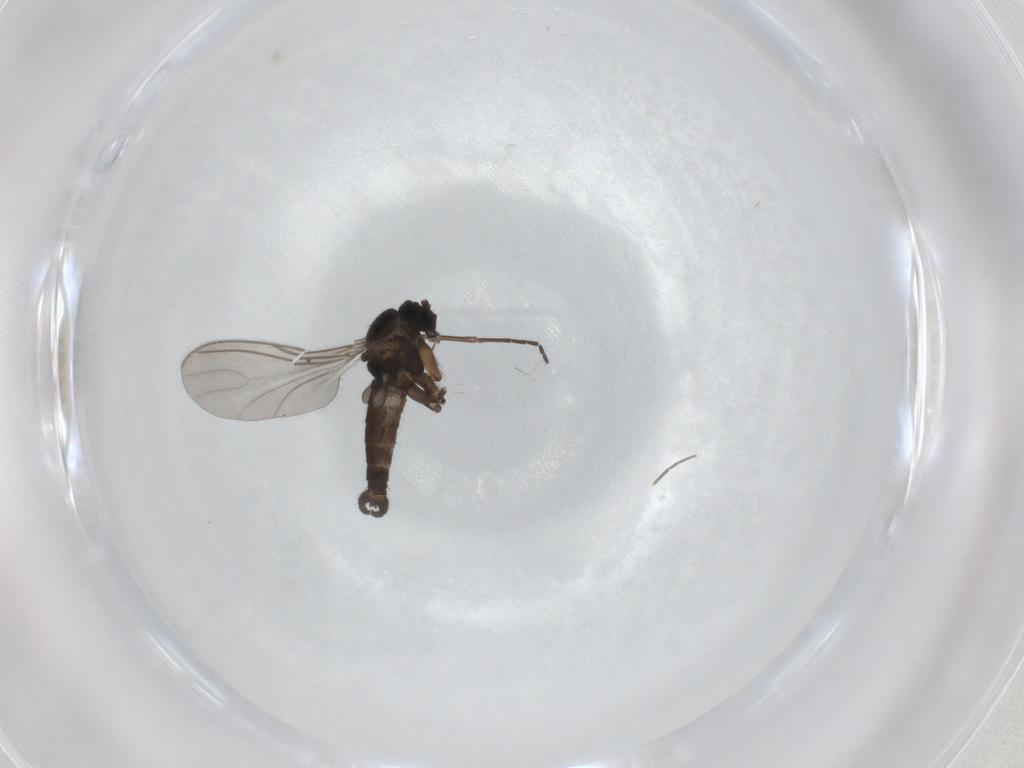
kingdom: Animalia
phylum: Arthropoda
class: Insecta
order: Diptera
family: Sciaridae
